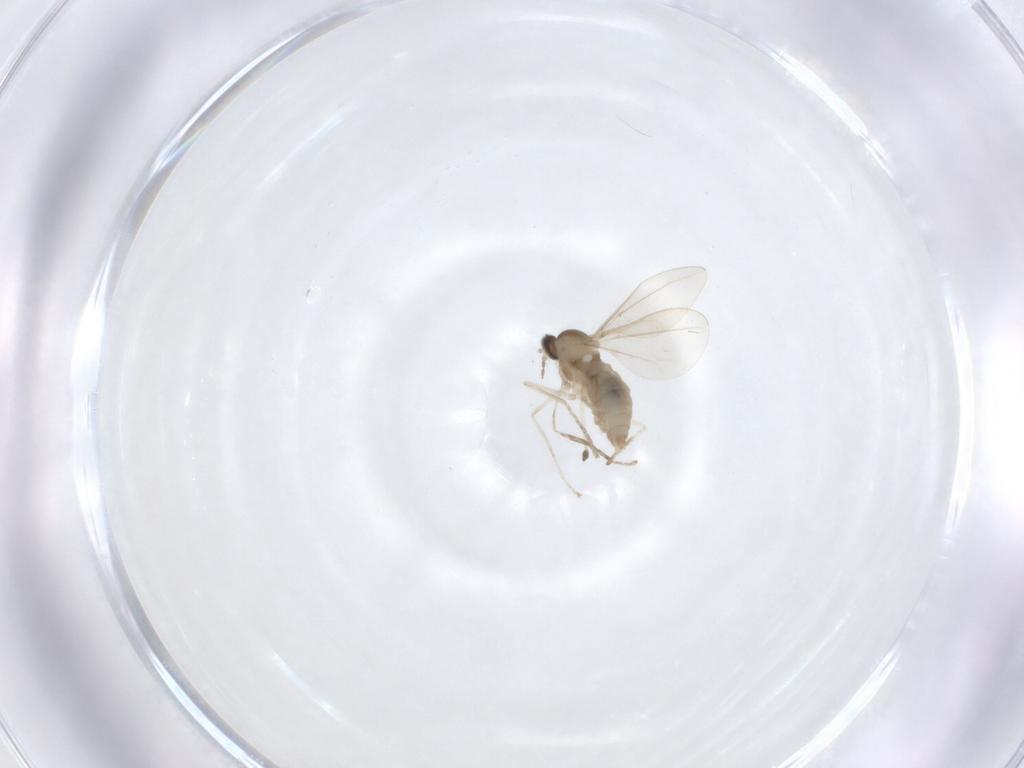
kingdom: Animalia
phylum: Arthropoda
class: Insecta
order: Diptera
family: Cecidomyiidae
